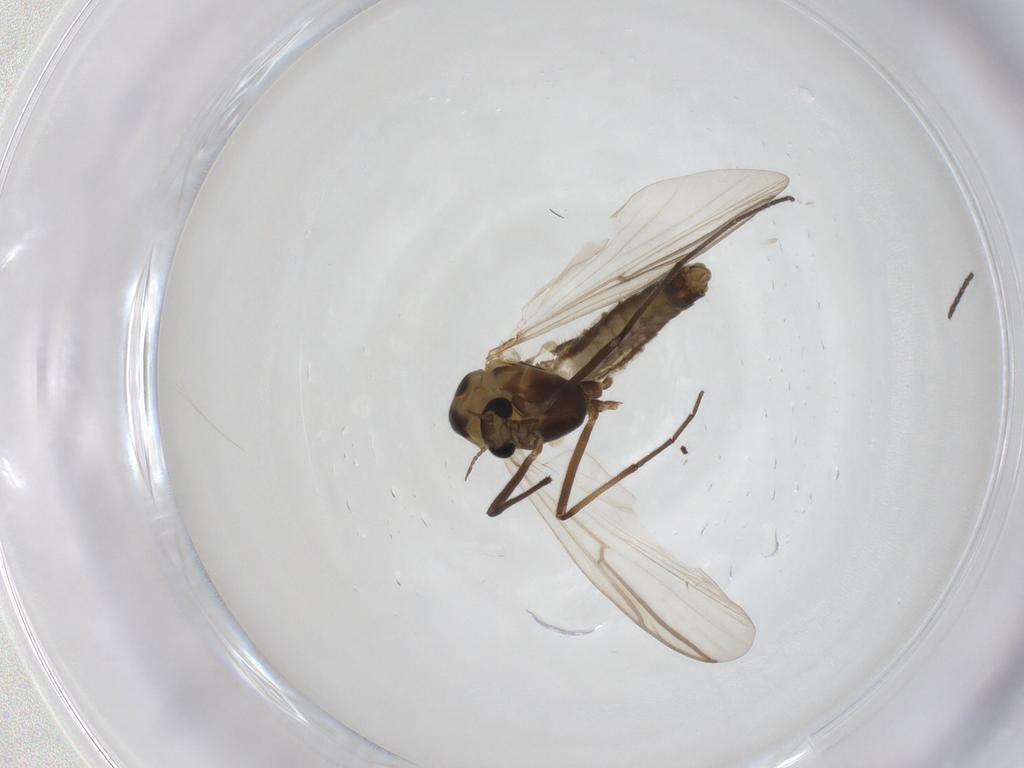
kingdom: Animalia
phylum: Arthropoda
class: Insecta
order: Diptera
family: Chironomidae
